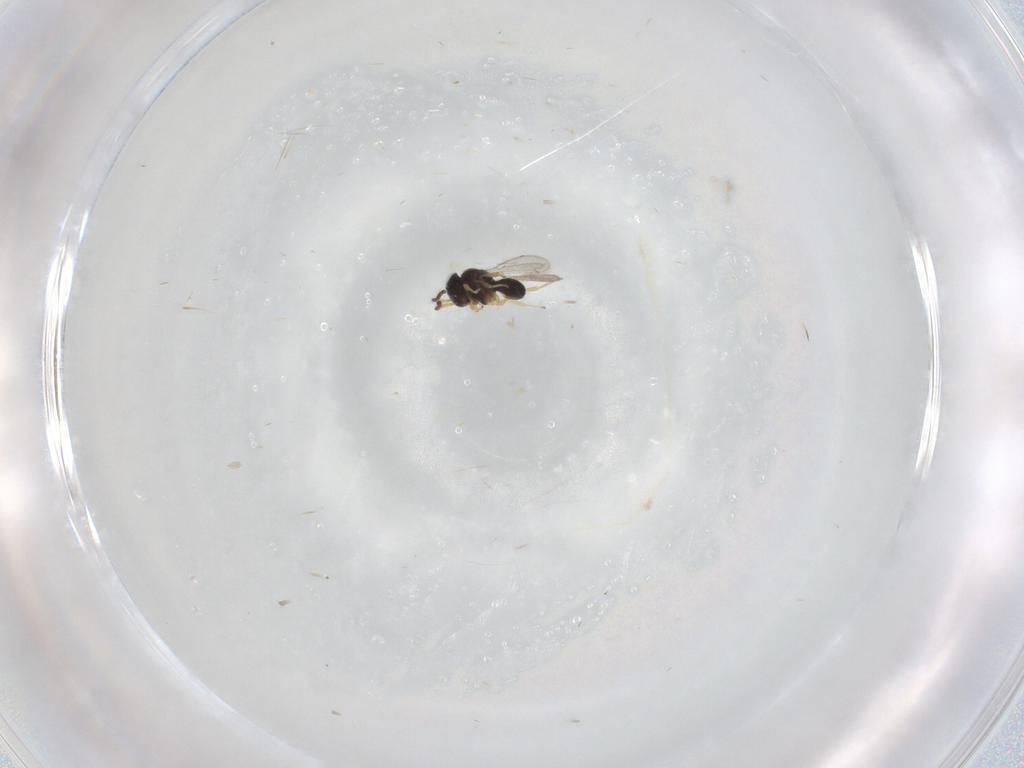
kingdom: Animalia
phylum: Arthropoda
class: Insecta
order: Hymenoptera
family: Scelionidae
